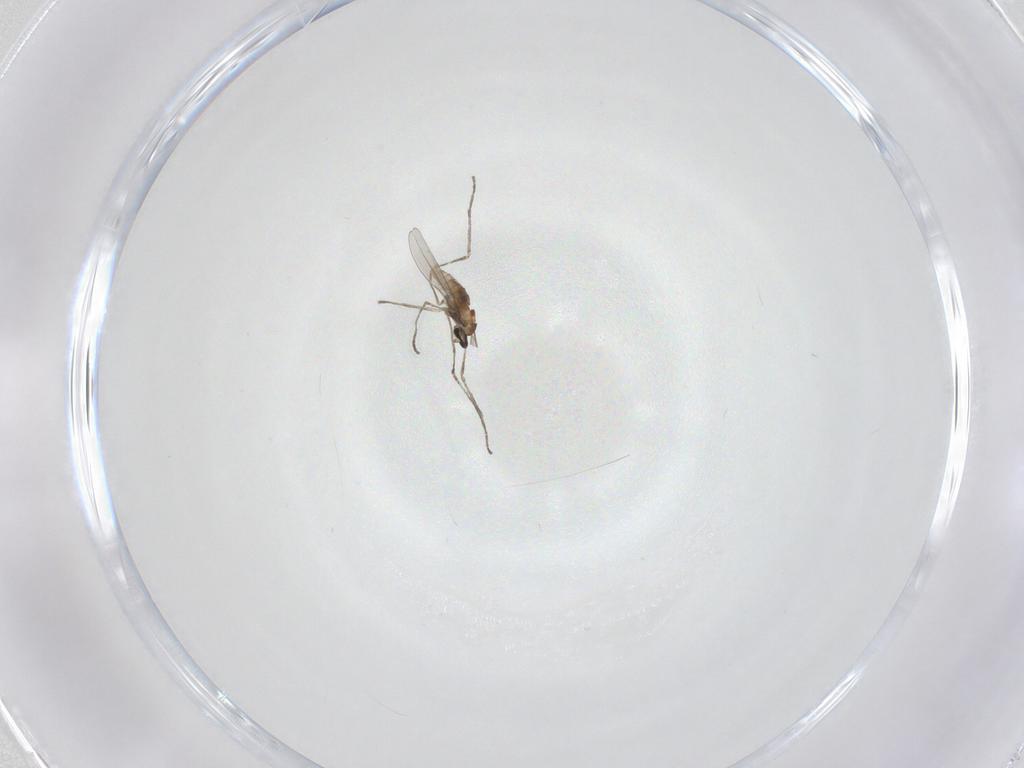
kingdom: Animalia
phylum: Arthropoda
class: Insecta
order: Diptera
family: Cecidomyiidae
